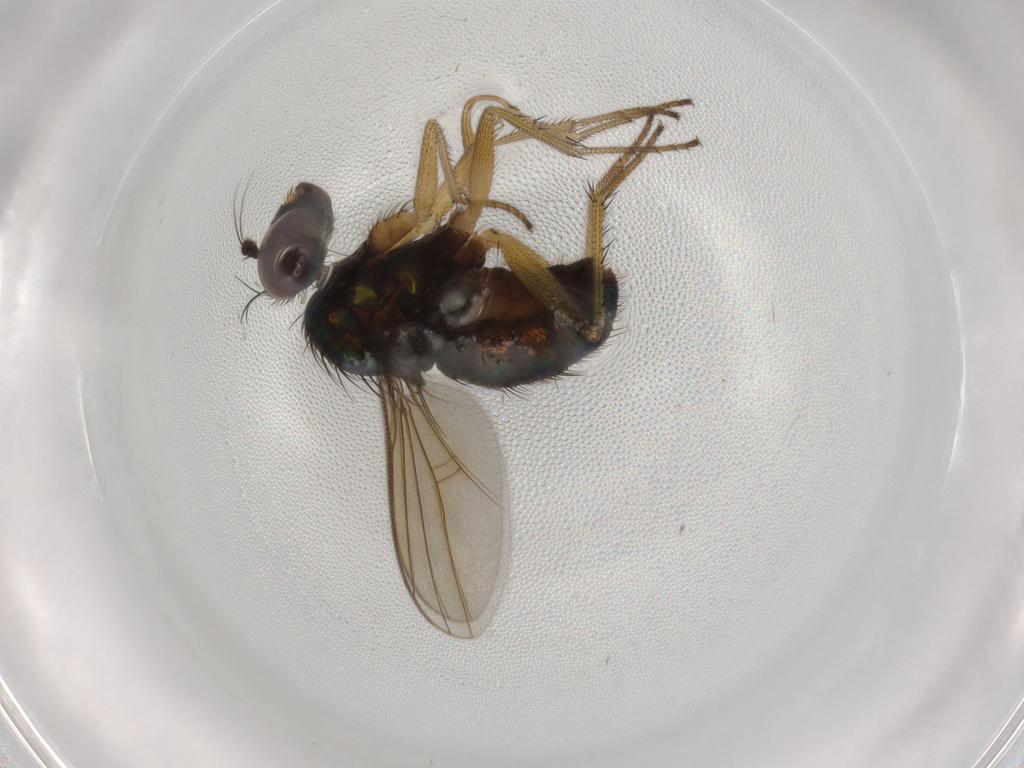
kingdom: Animalia
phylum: Arthropoda
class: Insecta
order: Diptera
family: Dolichopodidae
